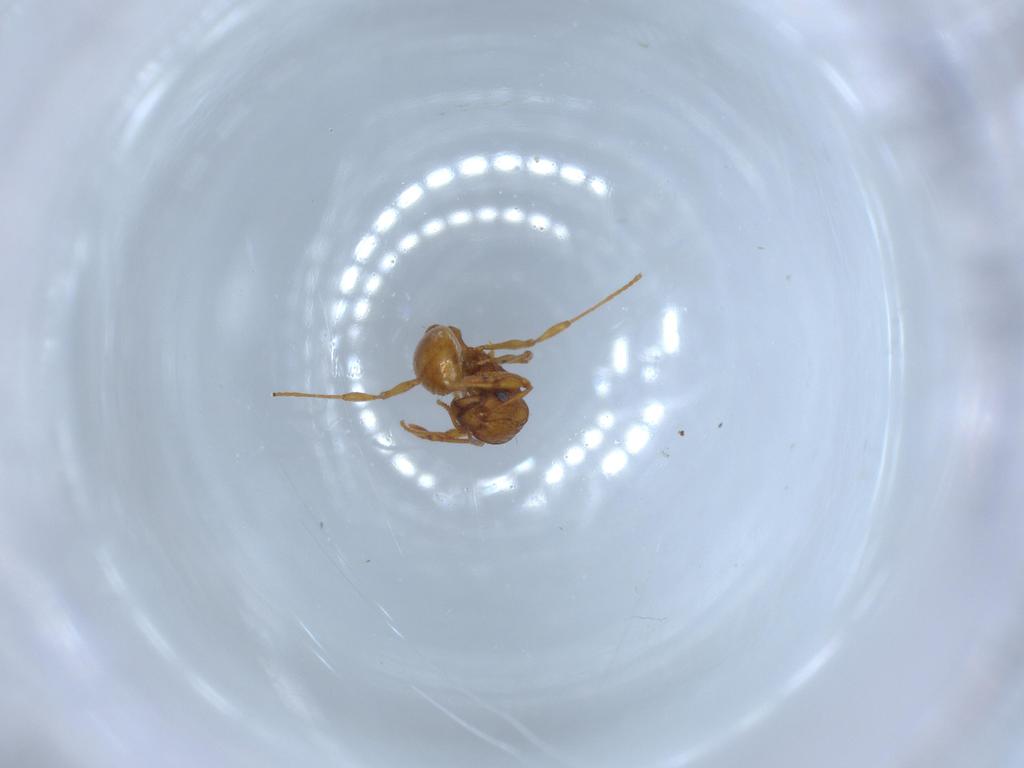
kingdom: Animalia
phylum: Arthropoda
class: Insecta
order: Hymenoptera
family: Formicidae
